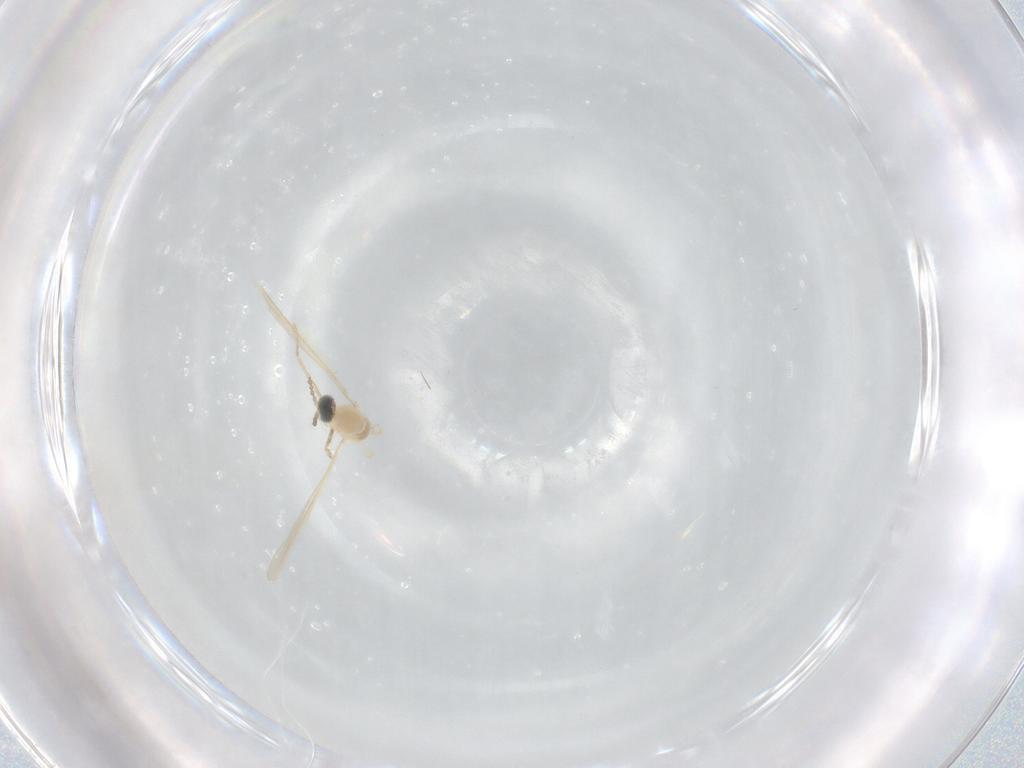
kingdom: Animalia
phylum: Arthropoda
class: Insecta
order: Diptera
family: Cecidomyiidae
